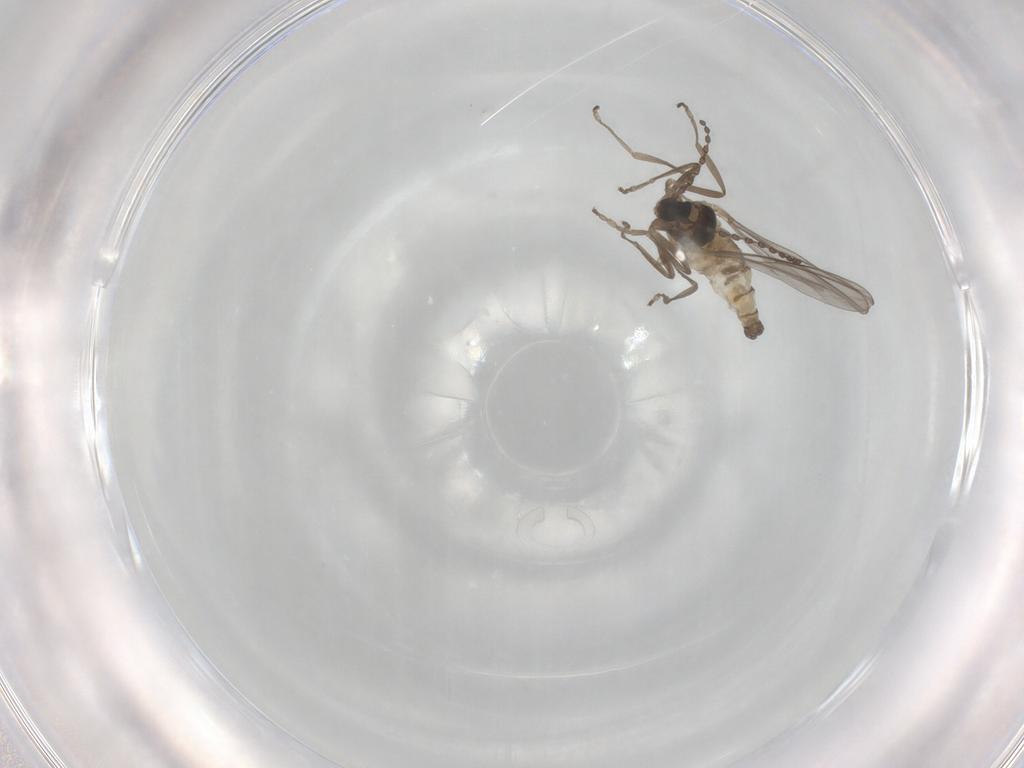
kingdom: Animalia
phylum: Arthropoda
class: Insecta
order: Diptera
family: Cecidomyiidae
